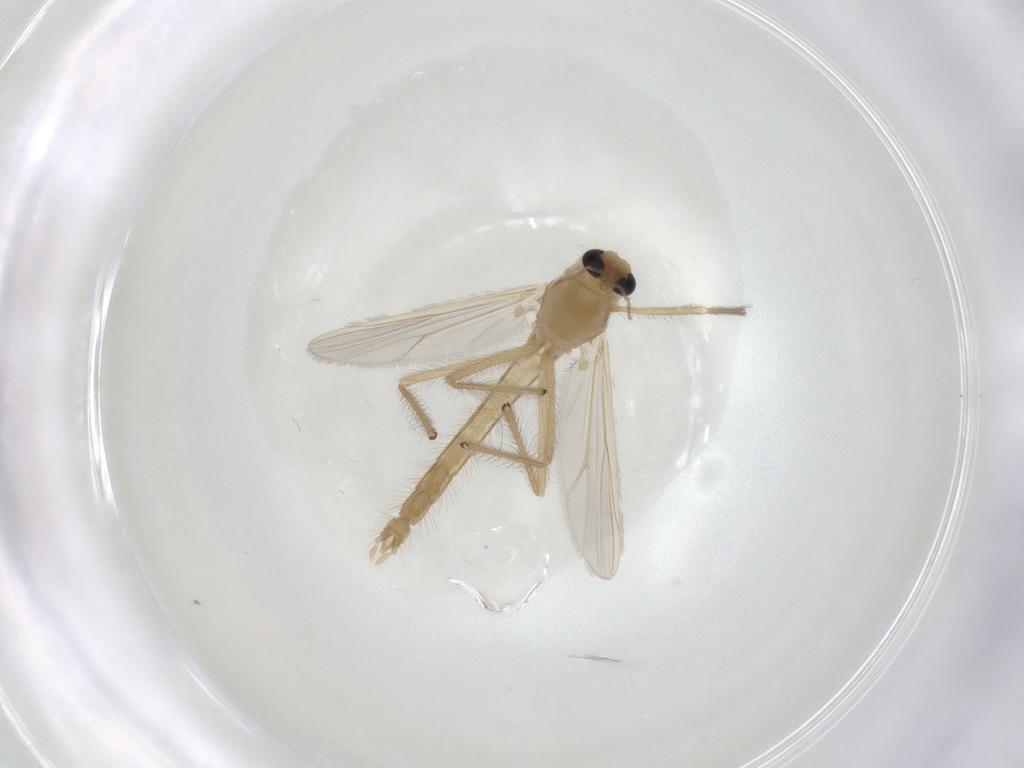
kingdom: Animalia
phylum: Arthropoda
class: Insecta
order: Diptera
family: Chironomidae
